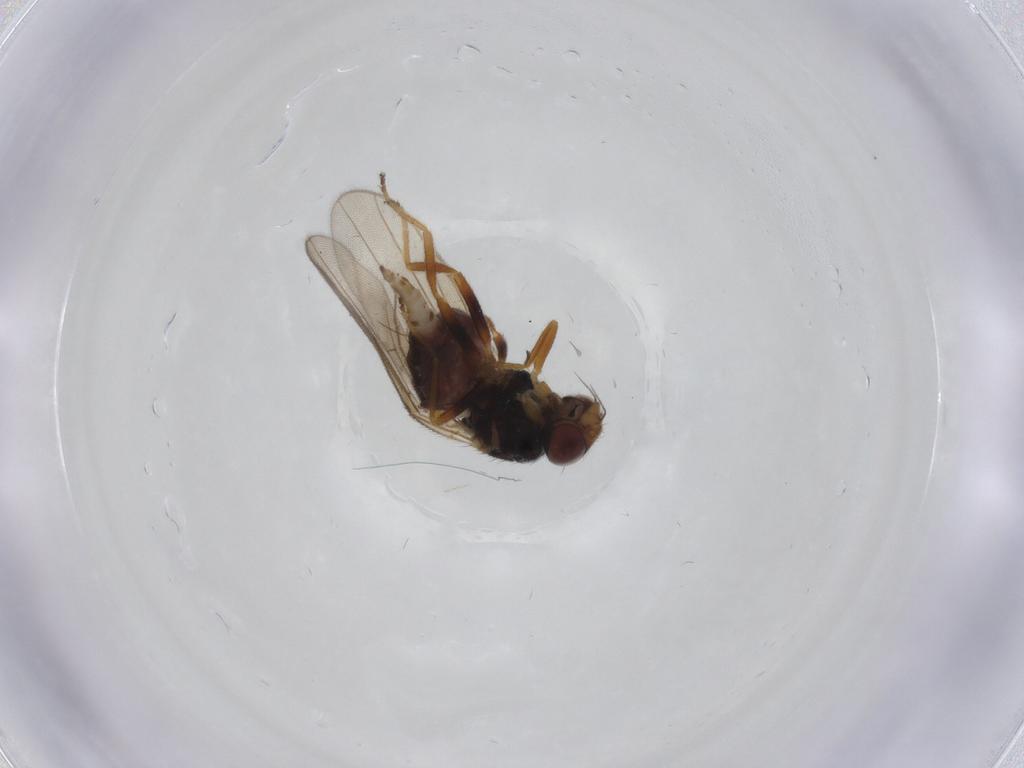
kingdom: Animalia
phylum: Arthropoda
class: Insecta
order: Diptera
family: Chloropidae
